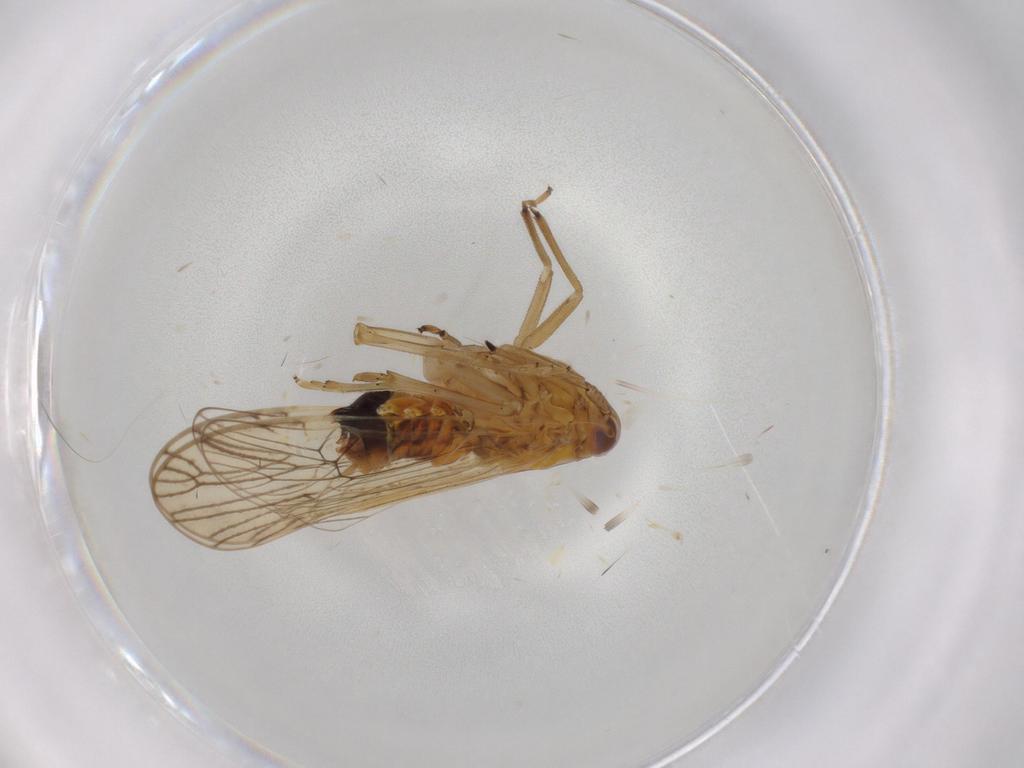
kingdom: Animalia
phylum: Arthropoda
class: Insecta
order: Hemiptera
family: Delphacidae
